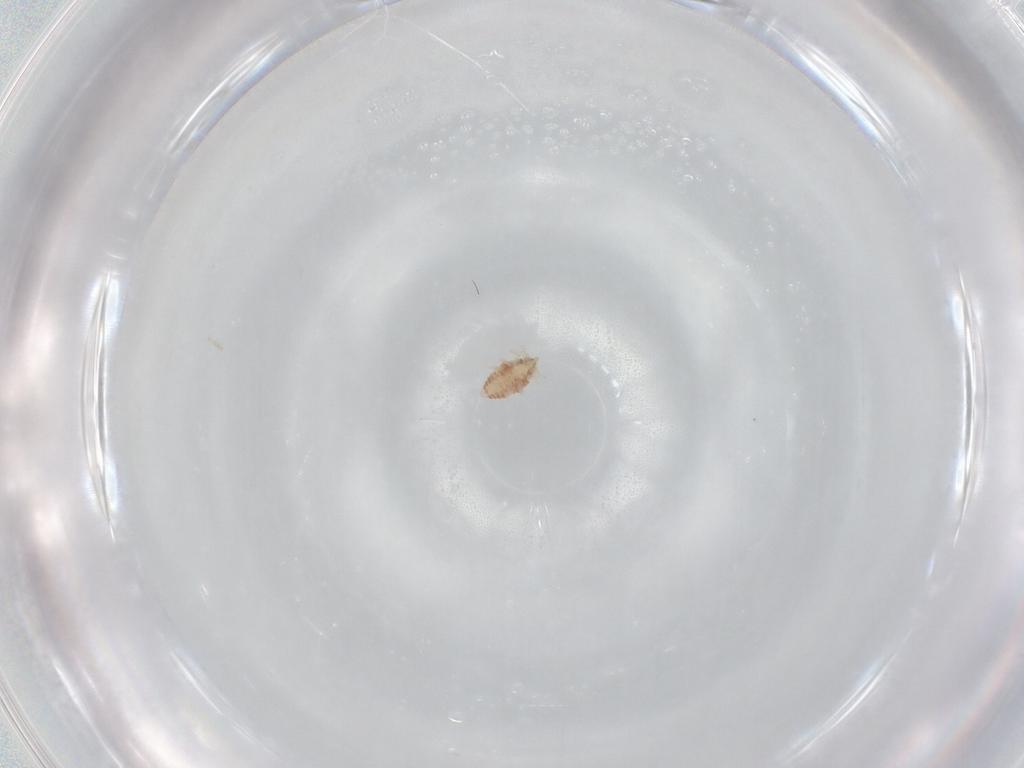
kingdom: Animalia
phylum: Arthropoda
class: Insecta
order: Neuroptera
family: Coniopterygidae
